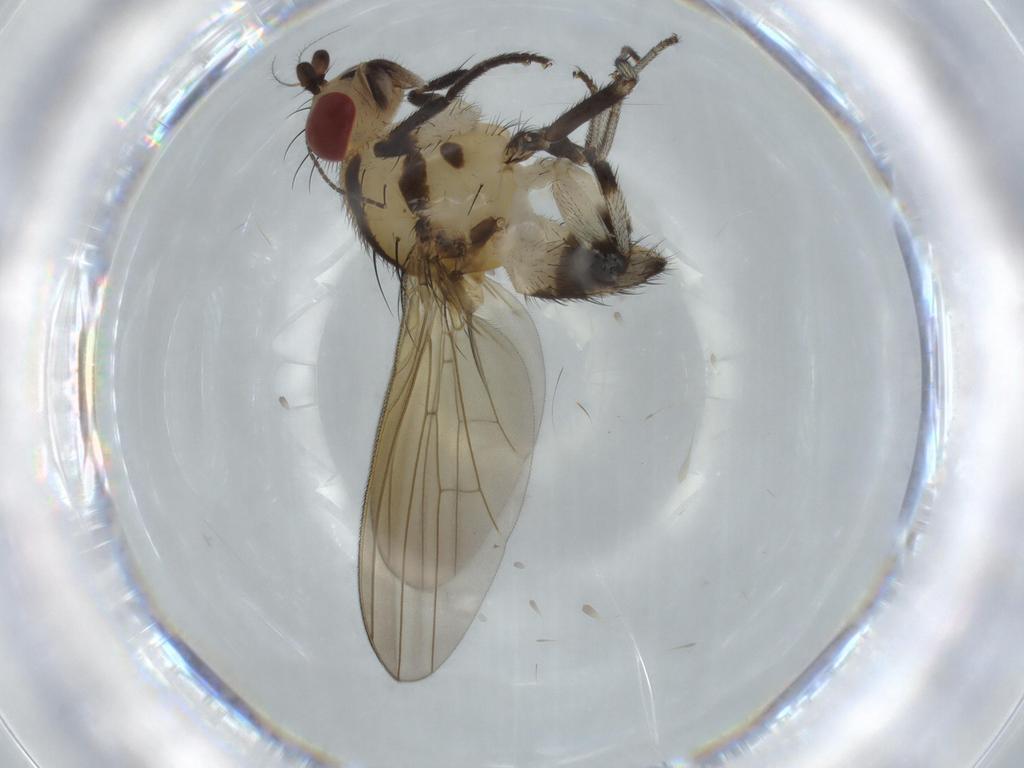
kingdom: Animalia
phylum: Arthropoda
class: Insecta
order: Diptera
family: Lauxaniidae
